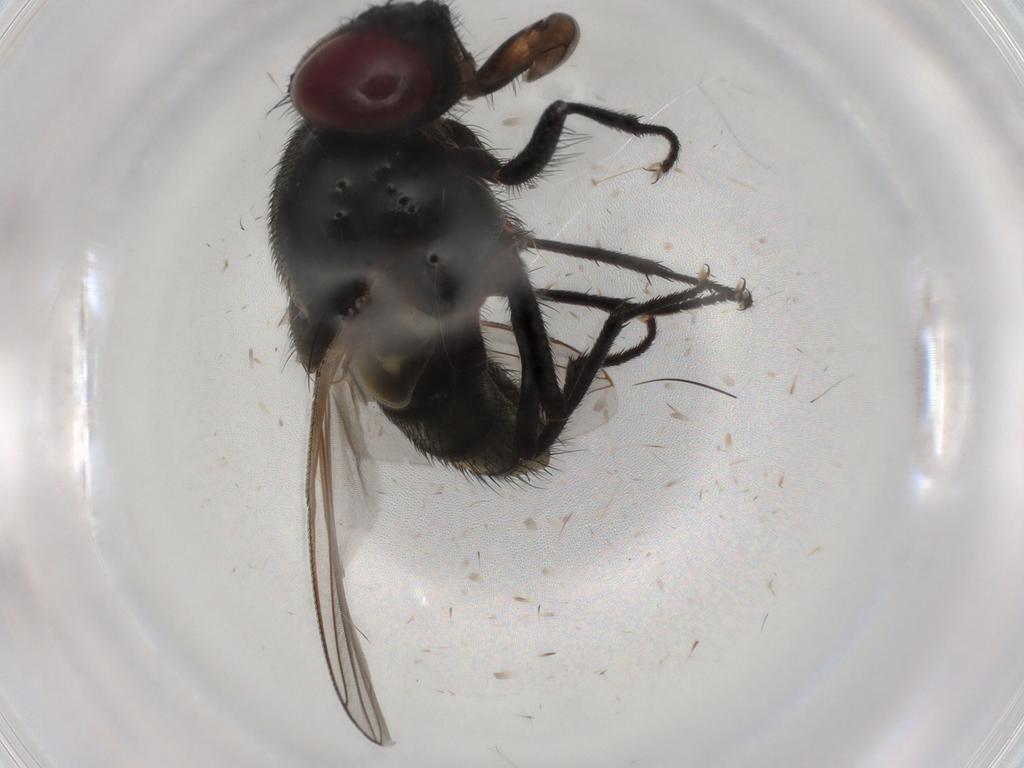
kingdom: Animalia
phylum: Arthropoda
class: Insecta
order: Diptera
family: Muscidae
